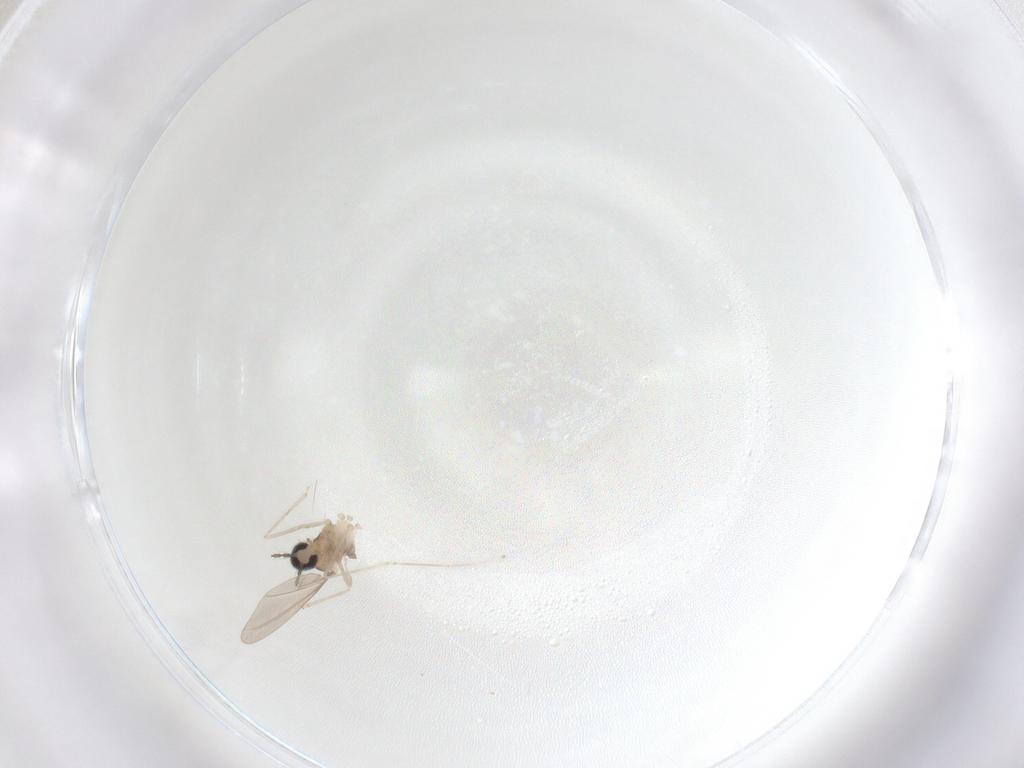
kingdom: Animalia
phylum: Arthropoda
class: Insecta
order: Diptera
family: Cecidomyiidae
